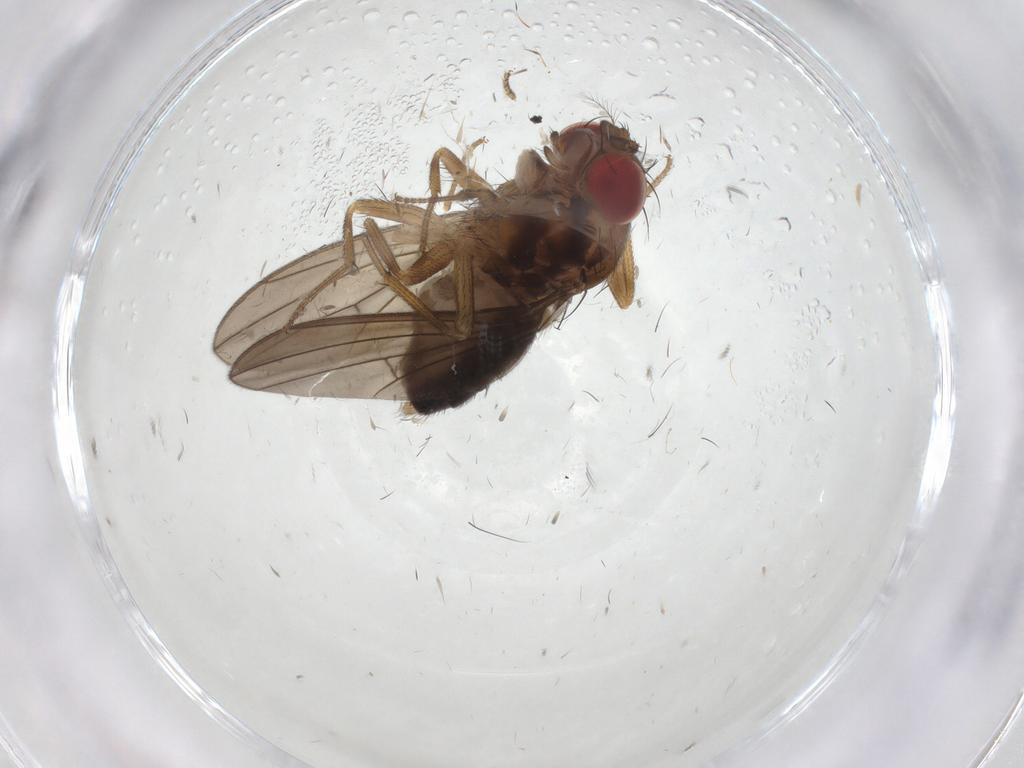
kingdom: Animalia
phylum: Arthropoda
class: Insecta
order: Diptera
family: Drosophilidae
